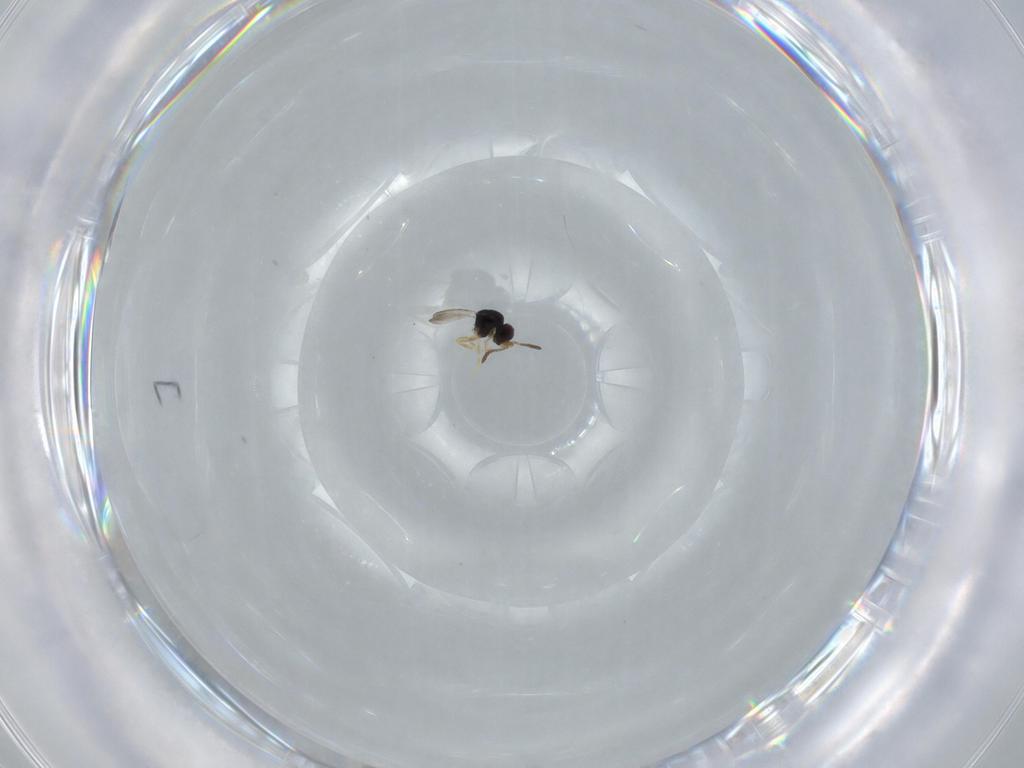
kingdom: Animalia
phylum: Arthropoda
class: Insecta
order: Hymenoptera
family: Ceraphronidae
